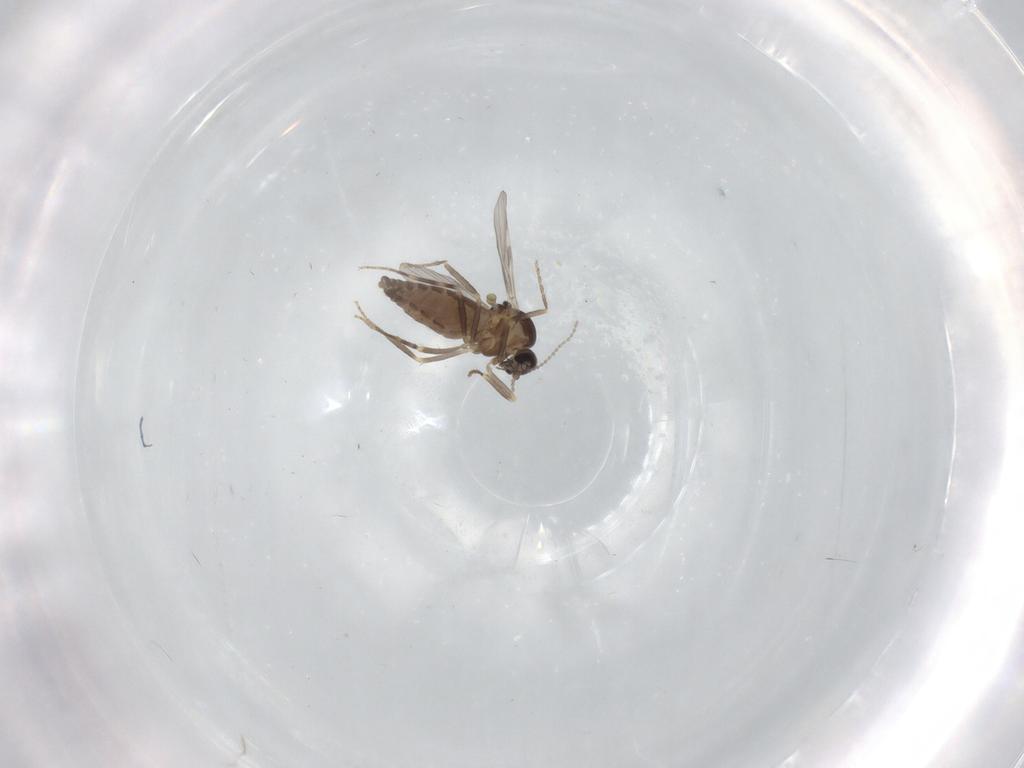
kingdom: Animalia
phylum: Arthropoda
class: Insecta
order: Diptera
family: Ceratopogonidae
